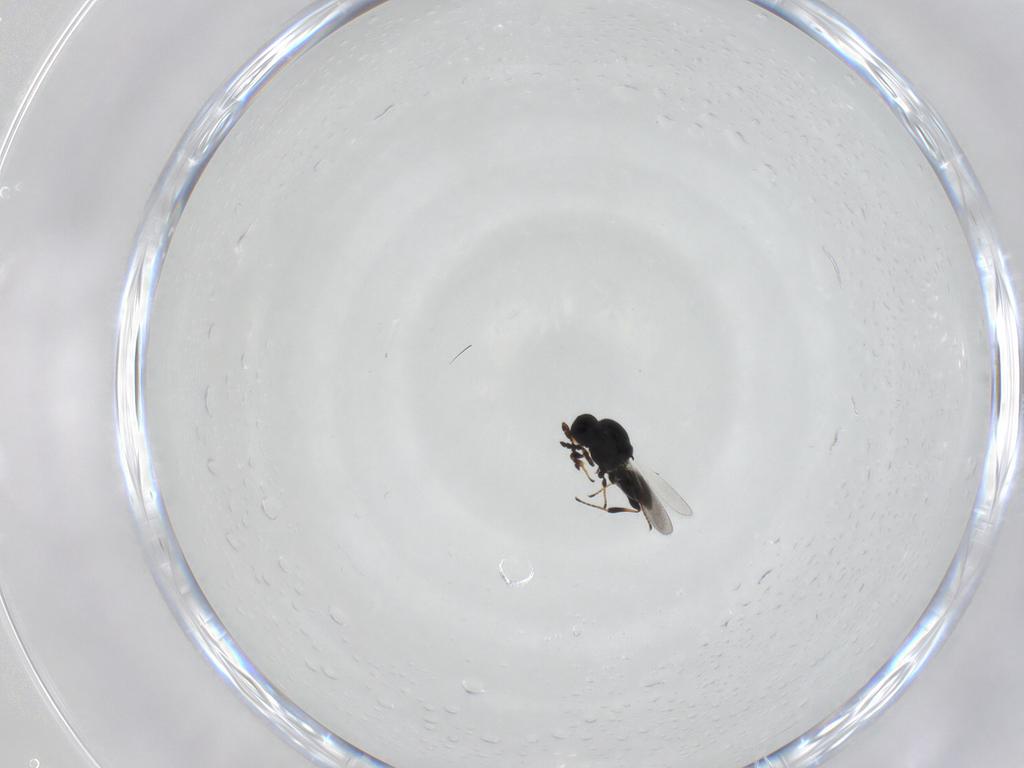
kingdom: Animalia
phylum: Arthropoda
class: Insecta
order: Hymenoptera
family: Platygastridae
